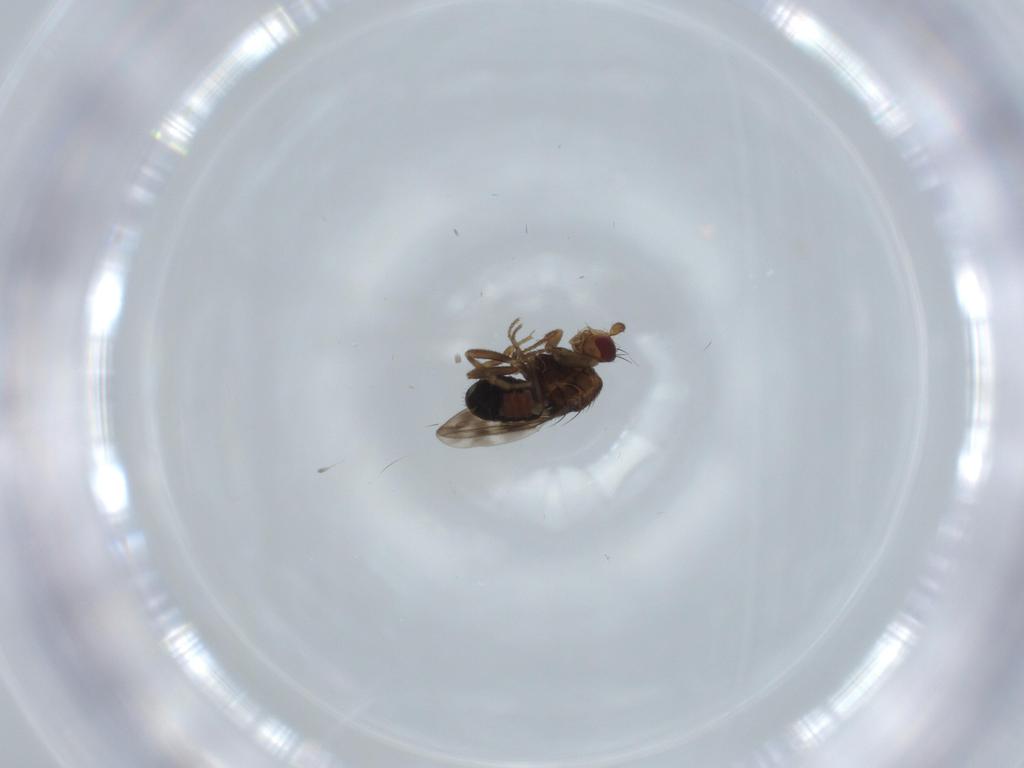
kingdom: Animalia
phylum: Arthropoda
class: Insecta
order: Diptera
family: Sphaeroceridae
